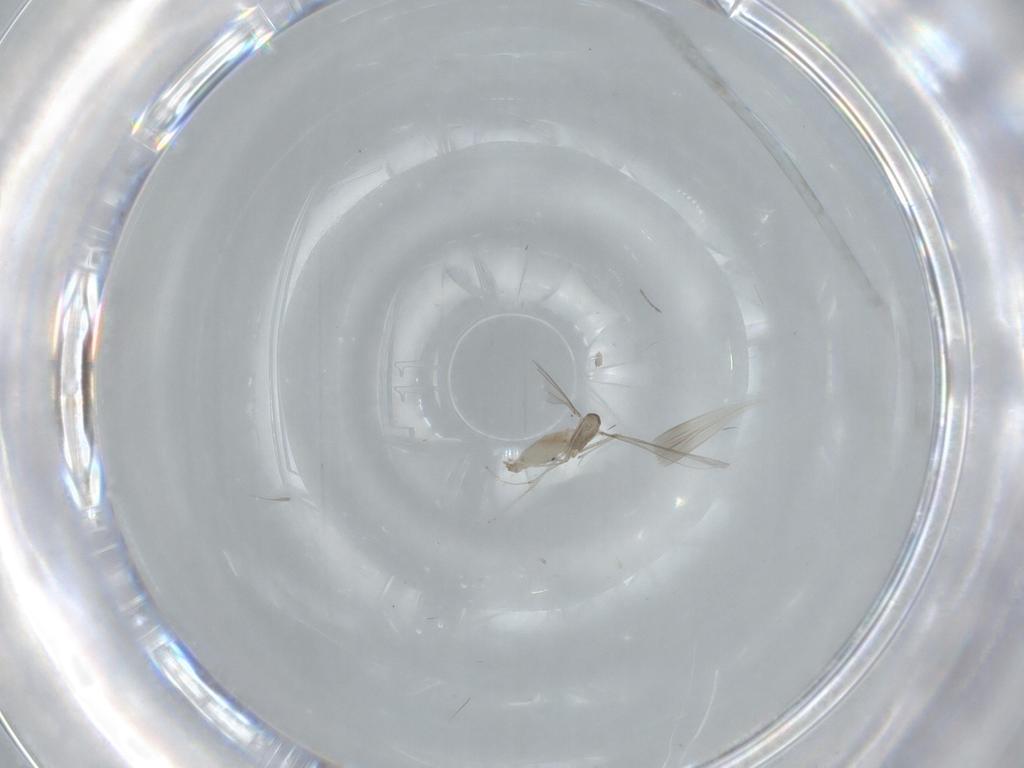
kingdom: Animalia
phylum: Arthropoda
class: Insecta
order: Diptera
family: Cecidomyiidae
